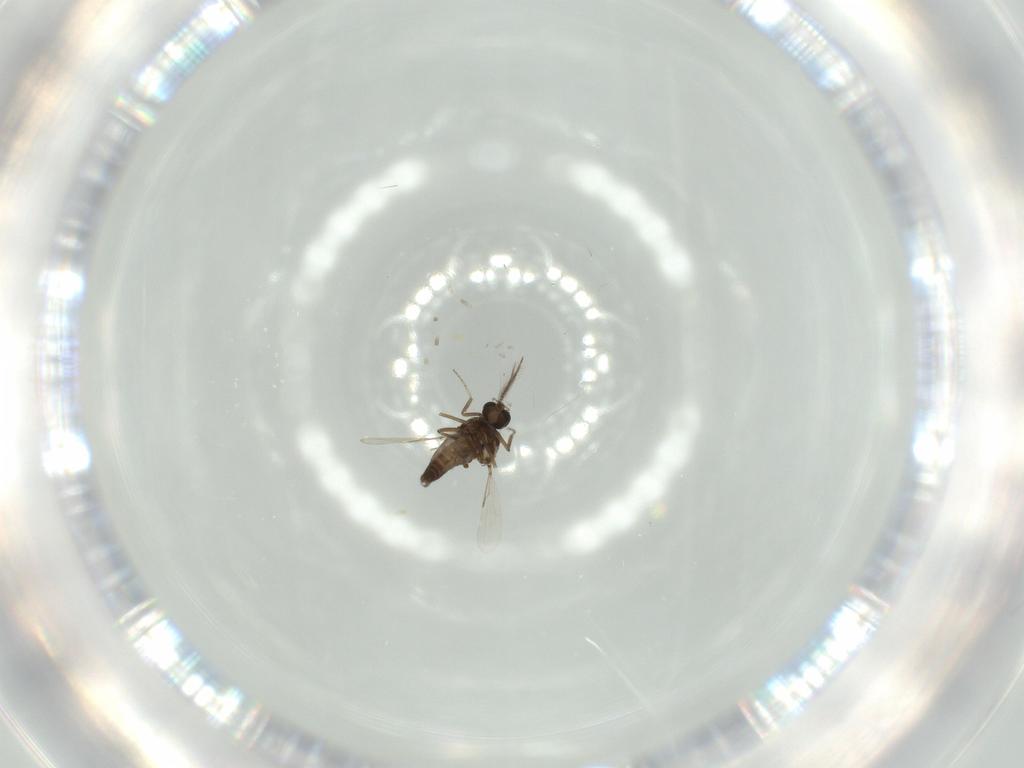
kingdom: Animalia
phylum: Arthropoda
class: Insecta
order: Diptera
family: Ceratopogonidae
